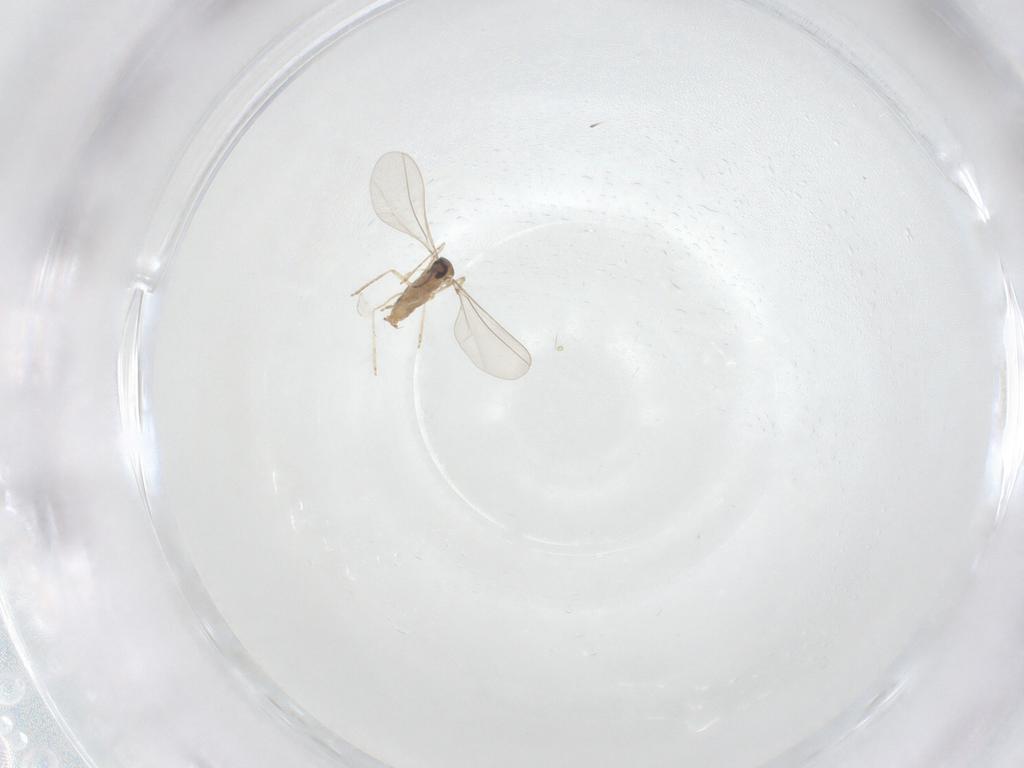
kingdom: Animalia
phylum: Arthropoda
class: Insecta
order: Diptera
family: Cecidomyiidae
